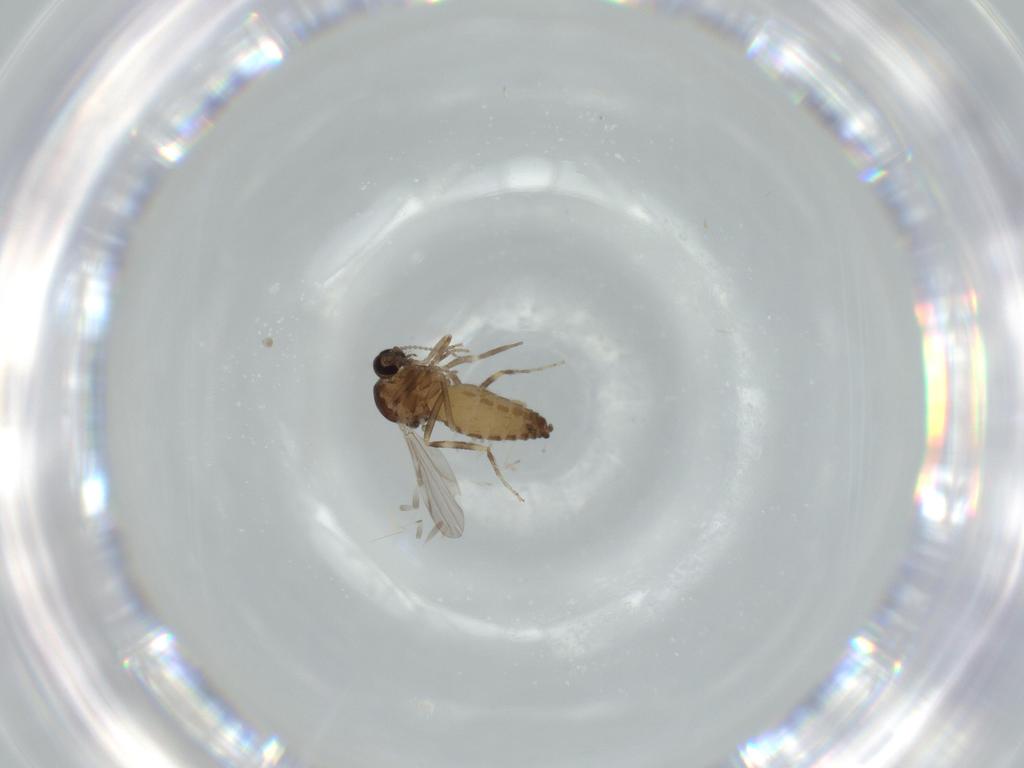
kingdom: Animalia
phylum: Arthropoda
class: Insecta
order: Diptera
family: Ceratopogonidae
